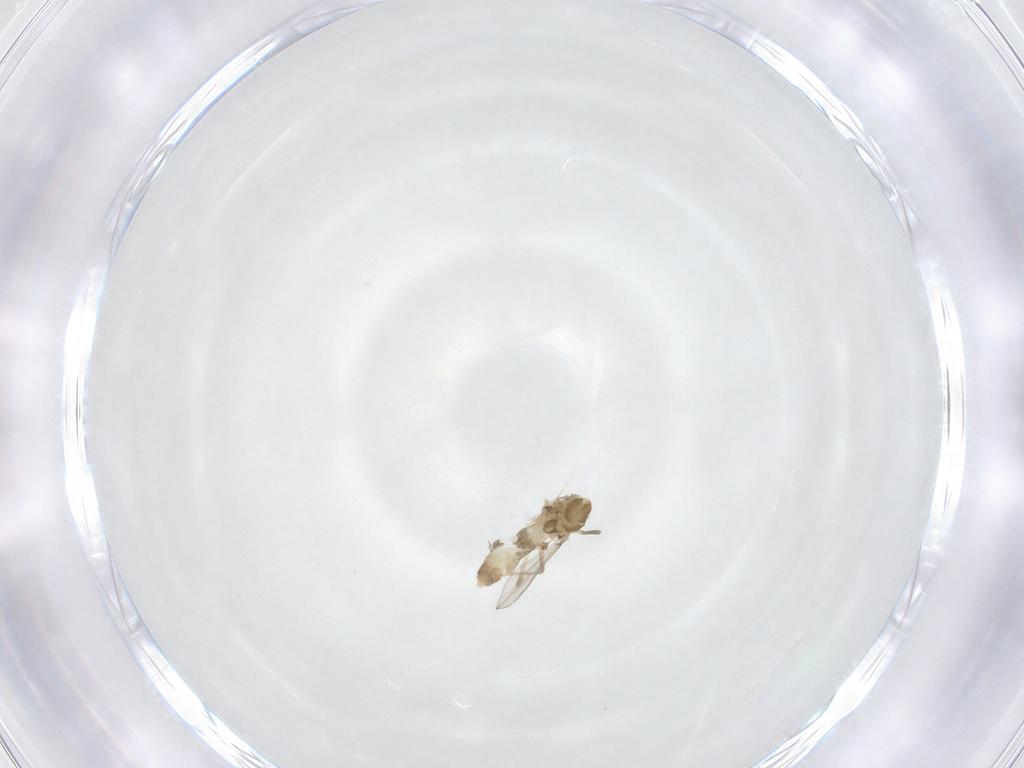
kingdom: Animalia
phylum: Arthropoda
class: Insecta
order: Diptera
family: Chironomidae
